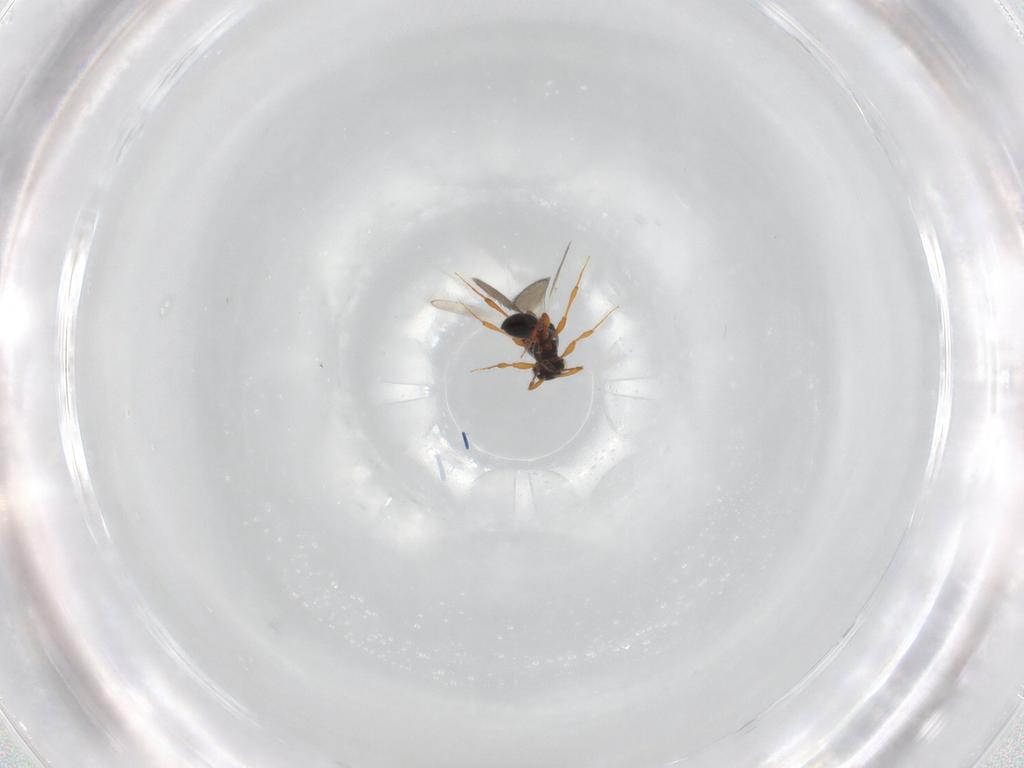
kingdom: Animalia
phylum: Arthropoda
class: Insecta
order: Hymenoptera
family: Platygastridae
